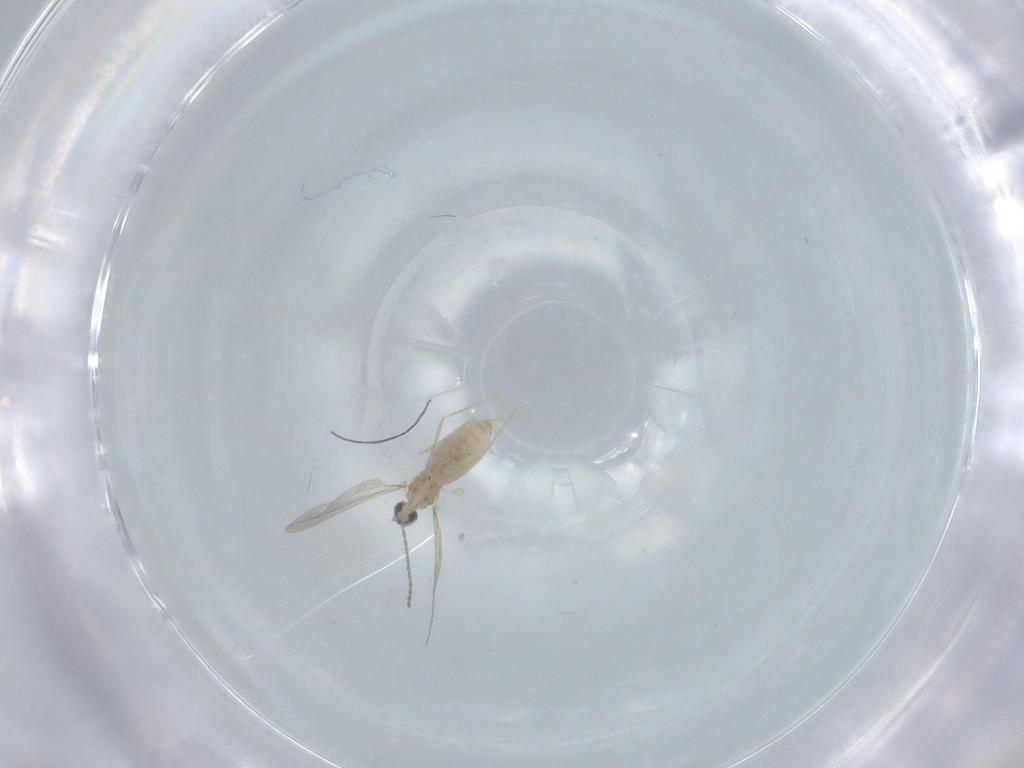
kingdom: Animalia
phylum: Arthropoda
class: Insecta
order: Diptera
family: Cecidomyiidae
